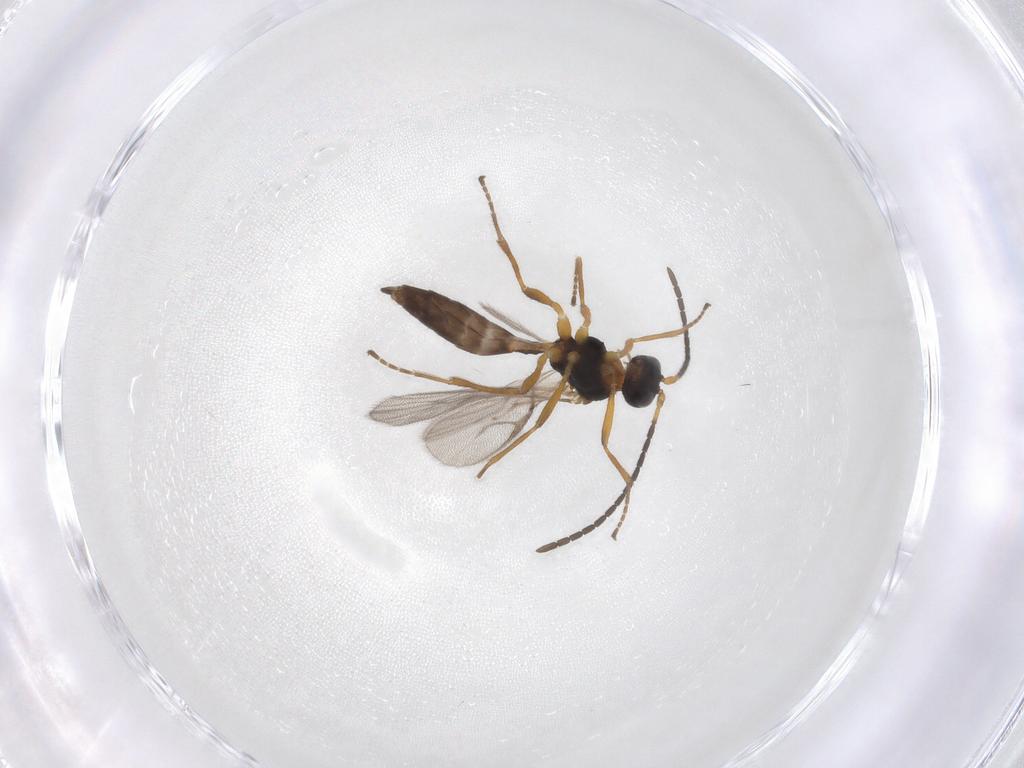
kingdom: Animalia
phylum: Arthropoda
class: Insecta
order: Hymenoptera
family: Braconidae
